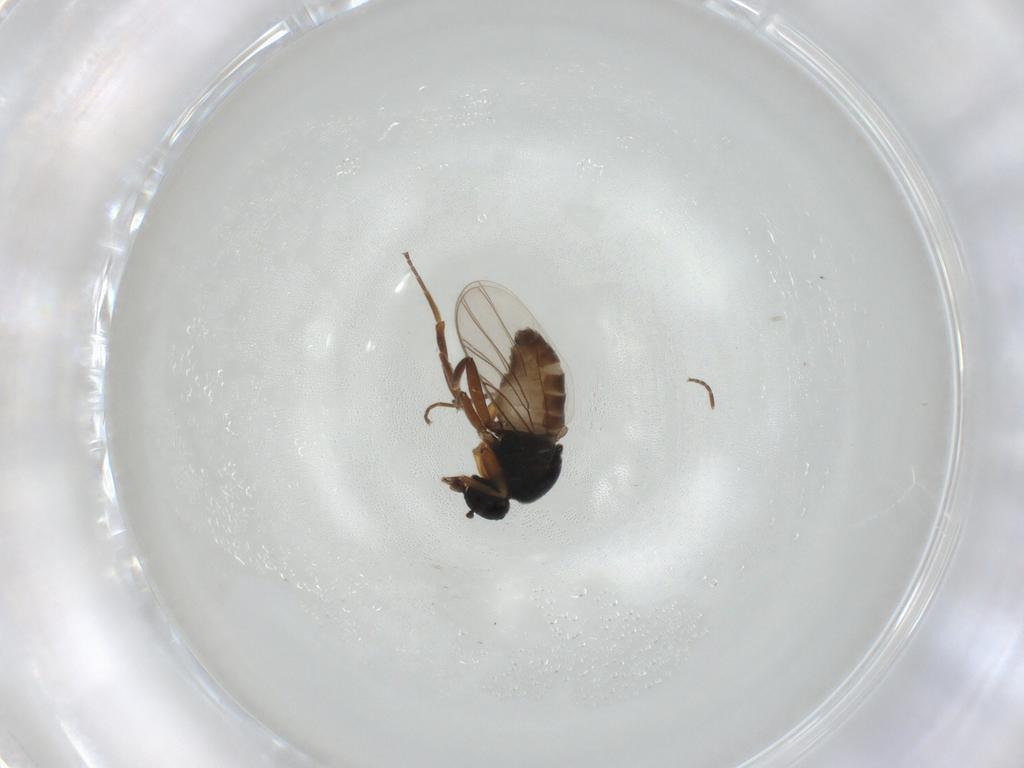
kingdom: Animalia
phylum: Arthropoda
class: Insecta
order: Diptera
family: Hybotidae
